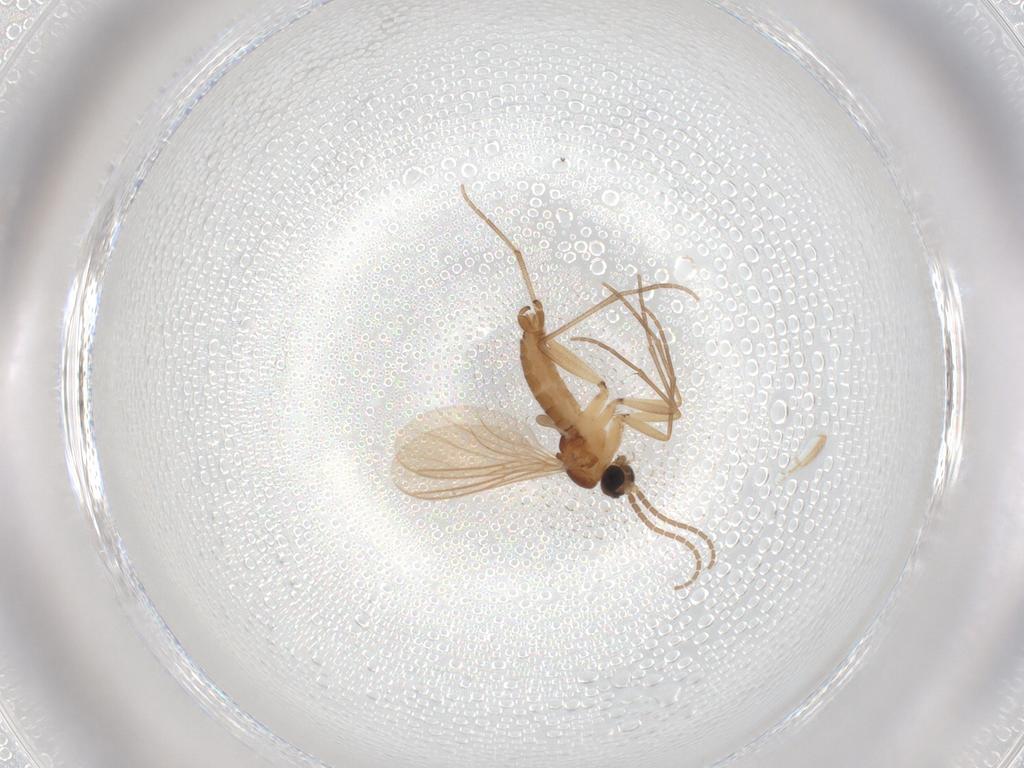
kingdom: Animalia
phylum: Arthropoda
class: Insecta
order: Diptera
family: Sciaridae
